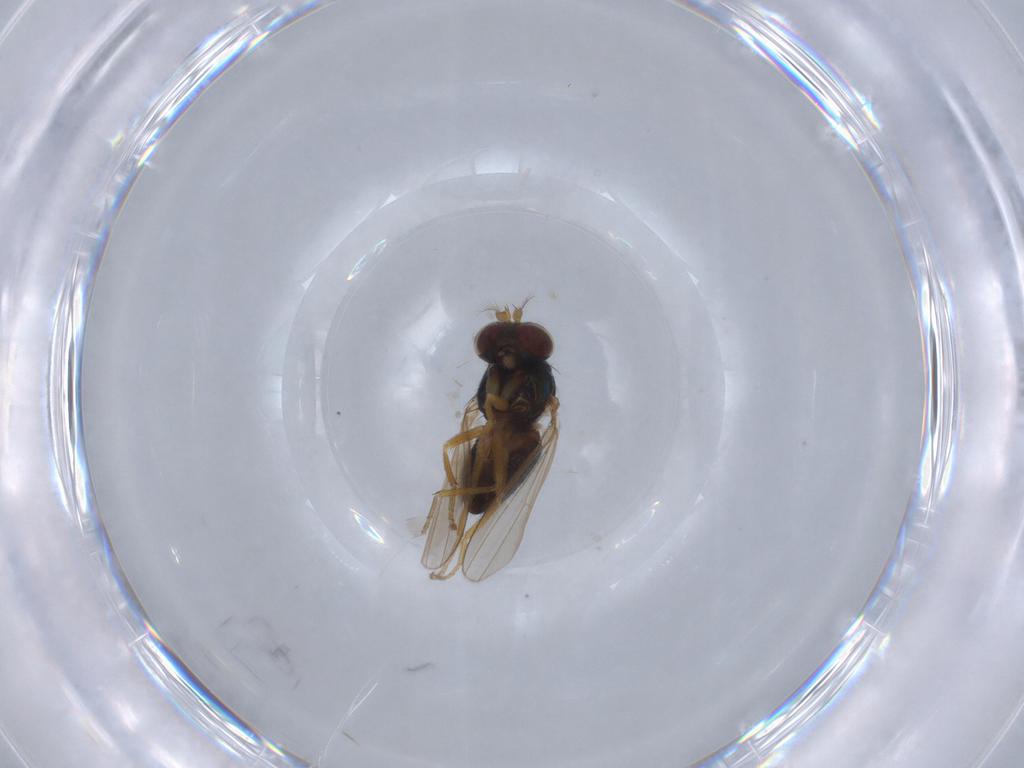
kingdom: Animalia
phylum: Arthropoda
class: Insecta
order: Diptera
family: Ephydridae
